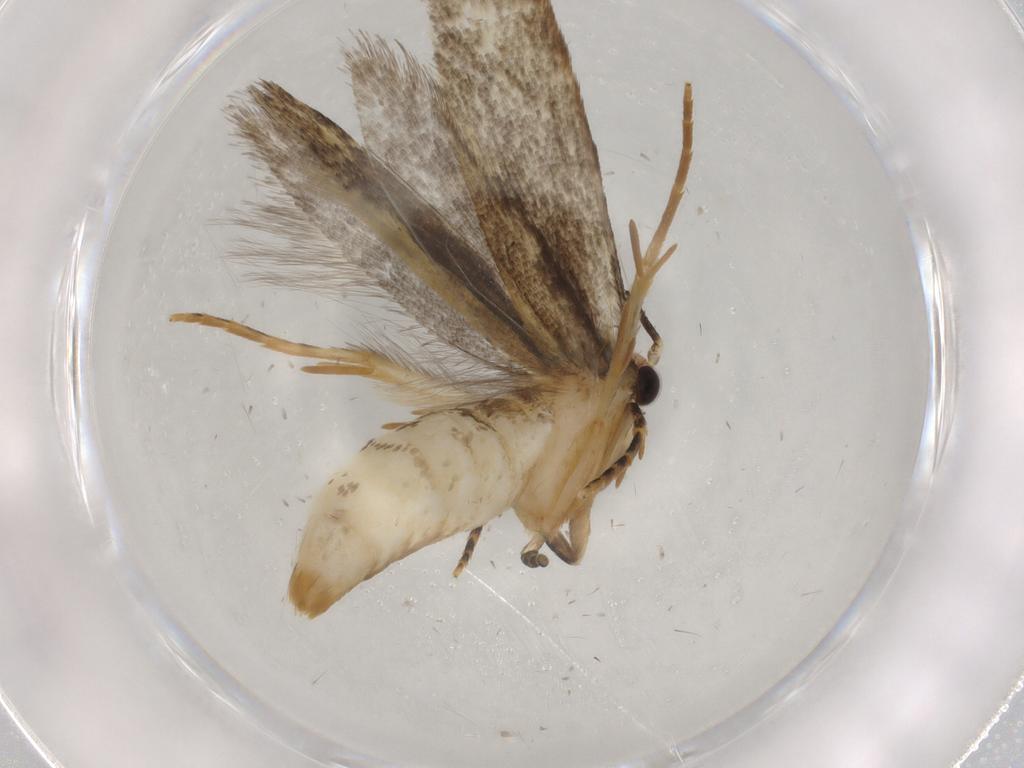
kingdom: Animalia
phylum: Arthropoda
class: Insecta
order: Lepidoptera
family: Tineidae
